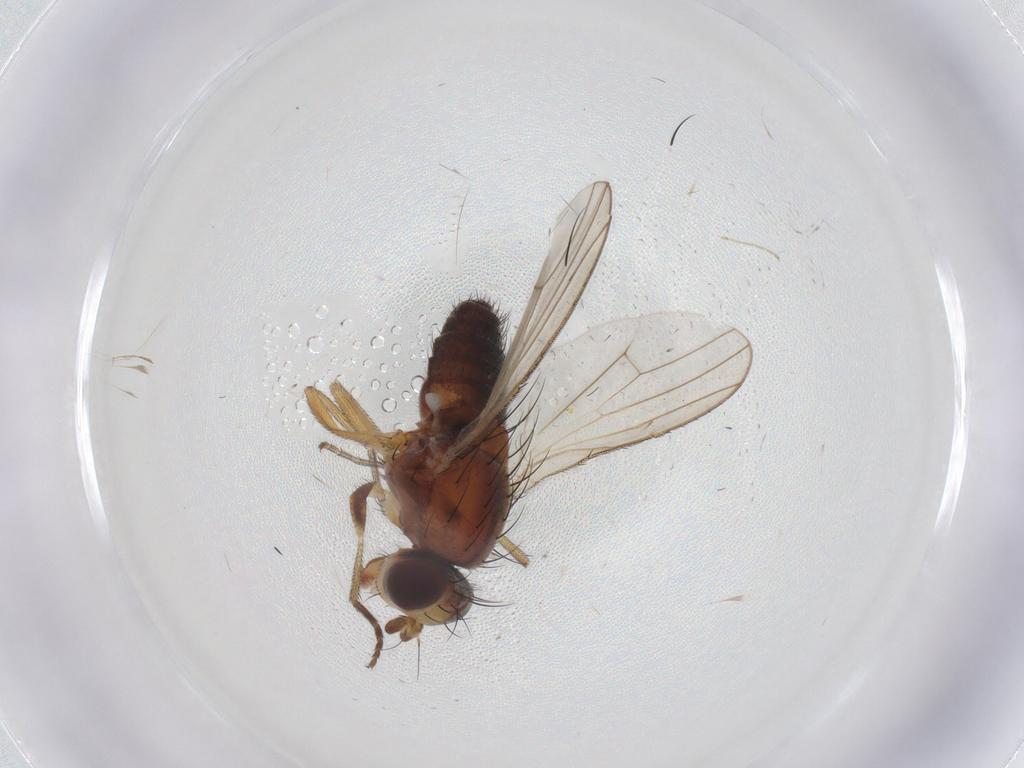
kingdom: Animalia
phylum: Arthropoda
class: Insecta
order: Diptera
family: Heleomyzidae
